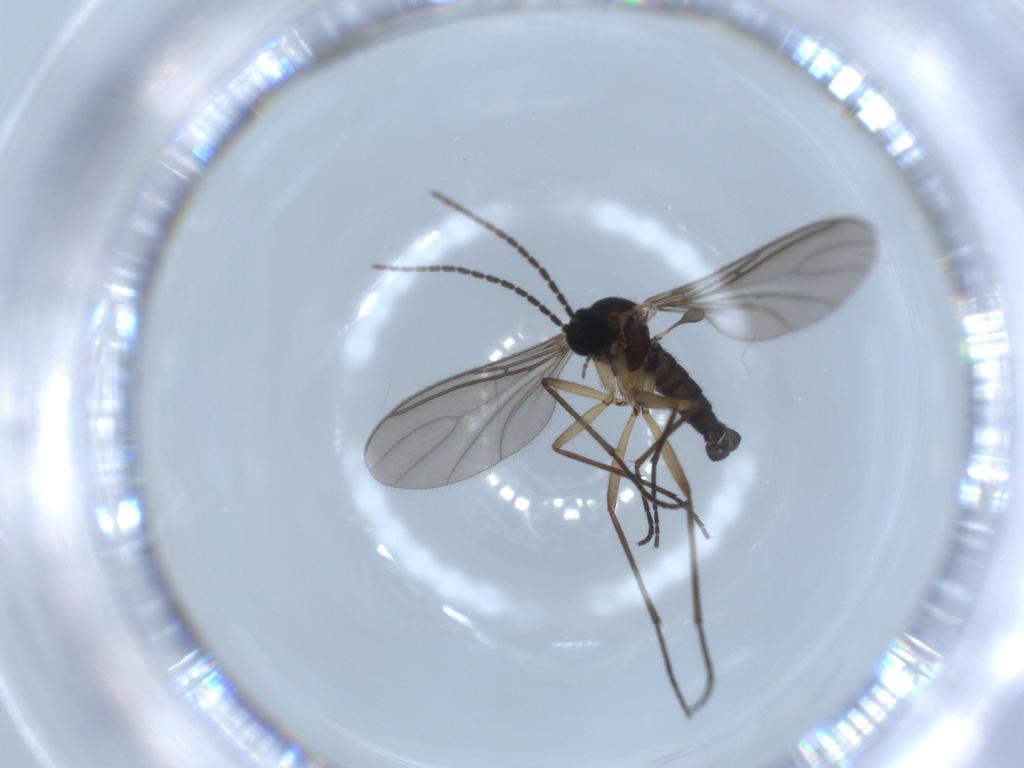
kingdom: Animalia
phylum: Arthropoda
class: Insecta
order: Diptera
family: Sciaridae
